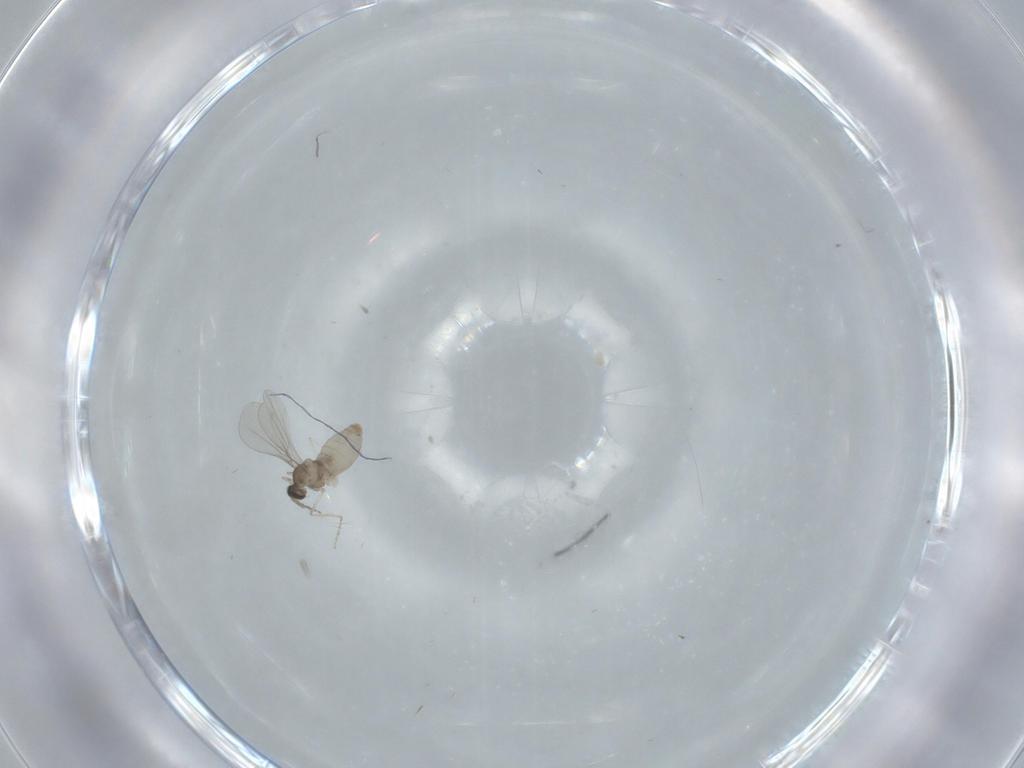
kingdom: Animalia
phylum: Arthropoda
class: Insecta
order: Diptera
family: Cecidomyiidae
